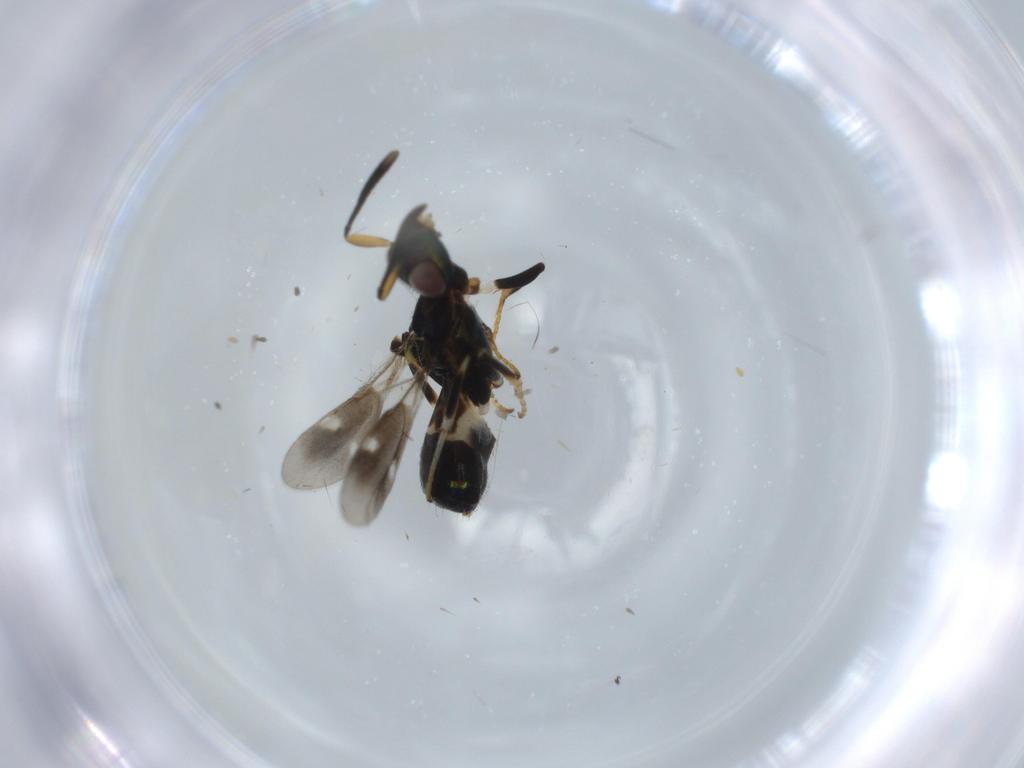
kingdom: Animalia
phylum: Arthropoda
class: Insecta
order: Hymenoptera
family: Eupelmidae
